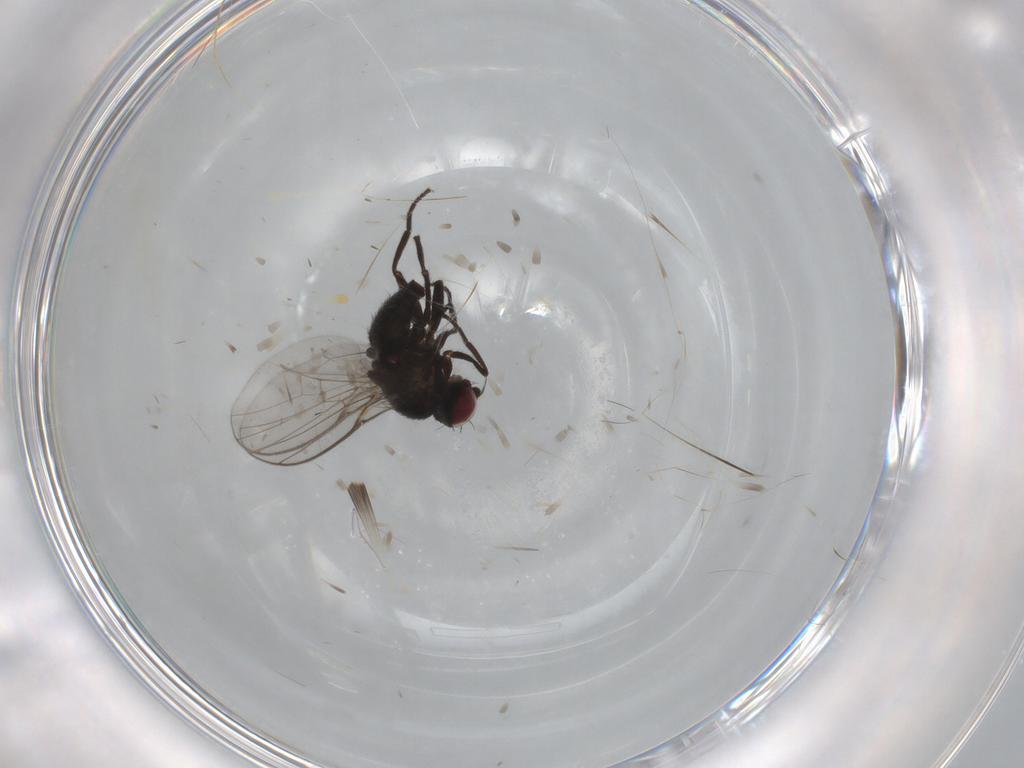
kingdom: Animalia
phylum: Arthropoda
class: Insecta
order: Diptera
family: Agromyzidae
